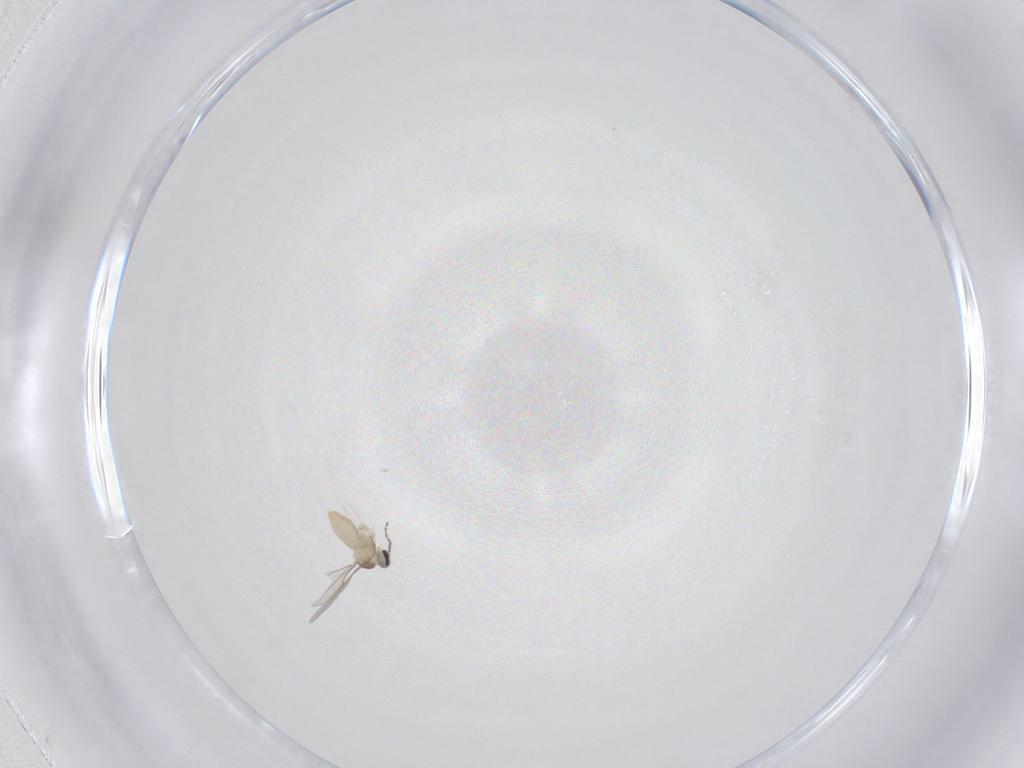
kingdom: Animalia
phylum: Arthropoda
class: Insecta
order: Diptera
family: Cecidomyiidae
